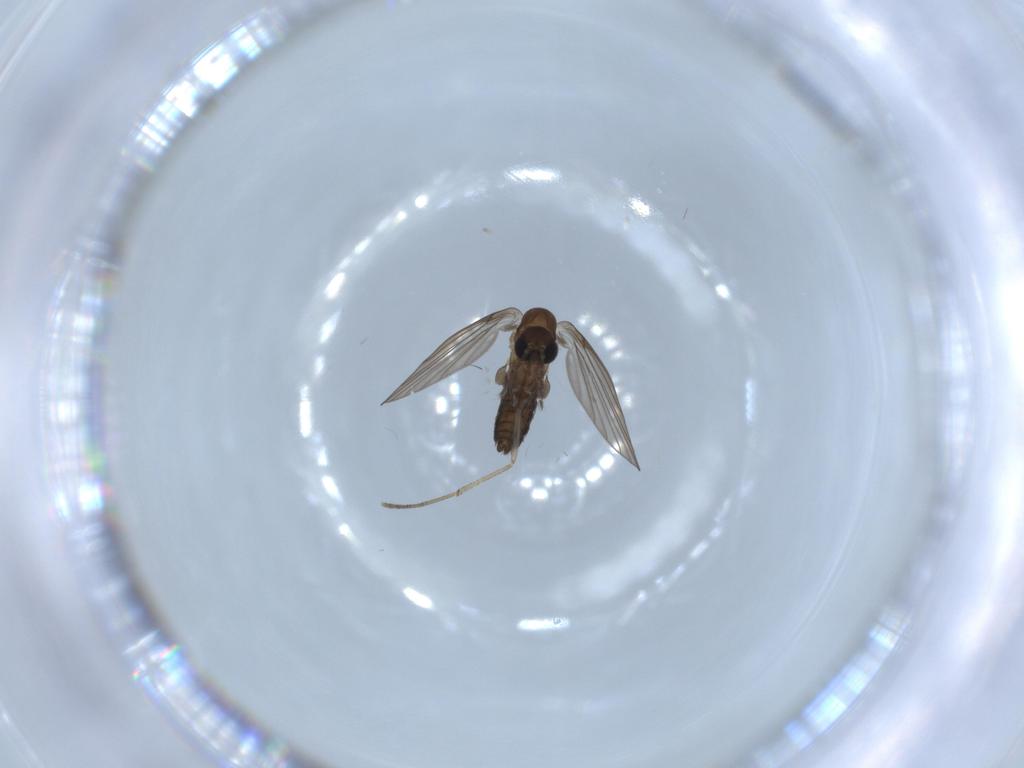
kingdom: Animalia
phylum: Arthropoda
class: Insecta
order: Diptera
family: Psychodidae
